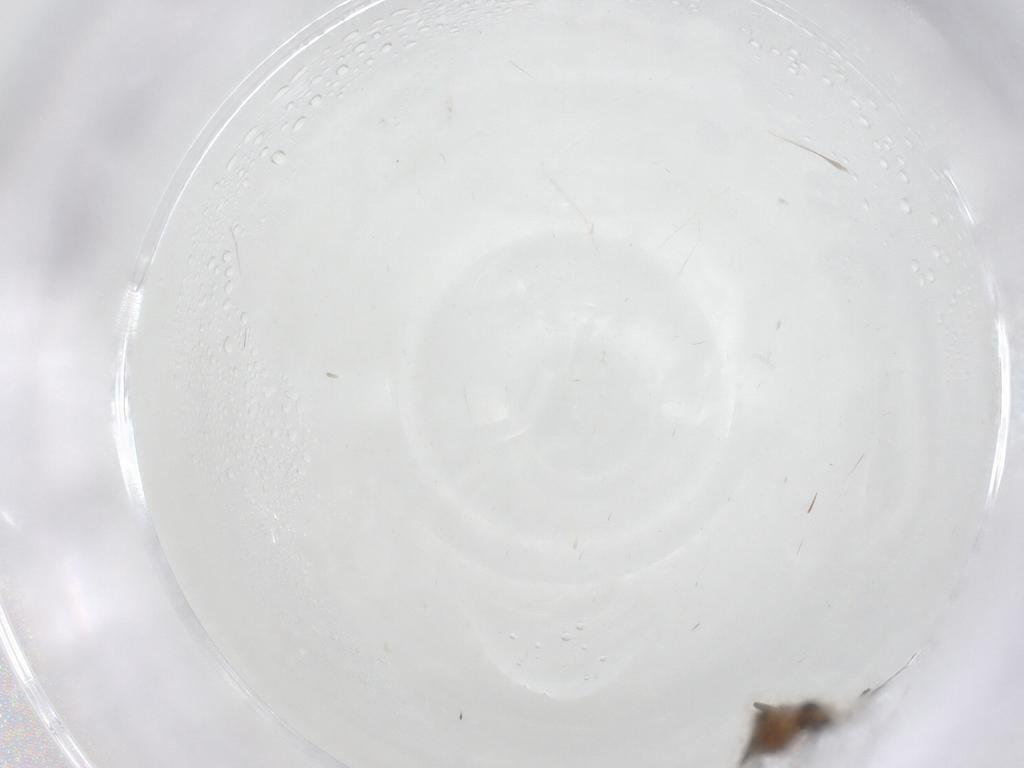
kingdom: Animalia
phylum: Arthropoda
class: Insecta
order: Diptera
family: Sciaridae
